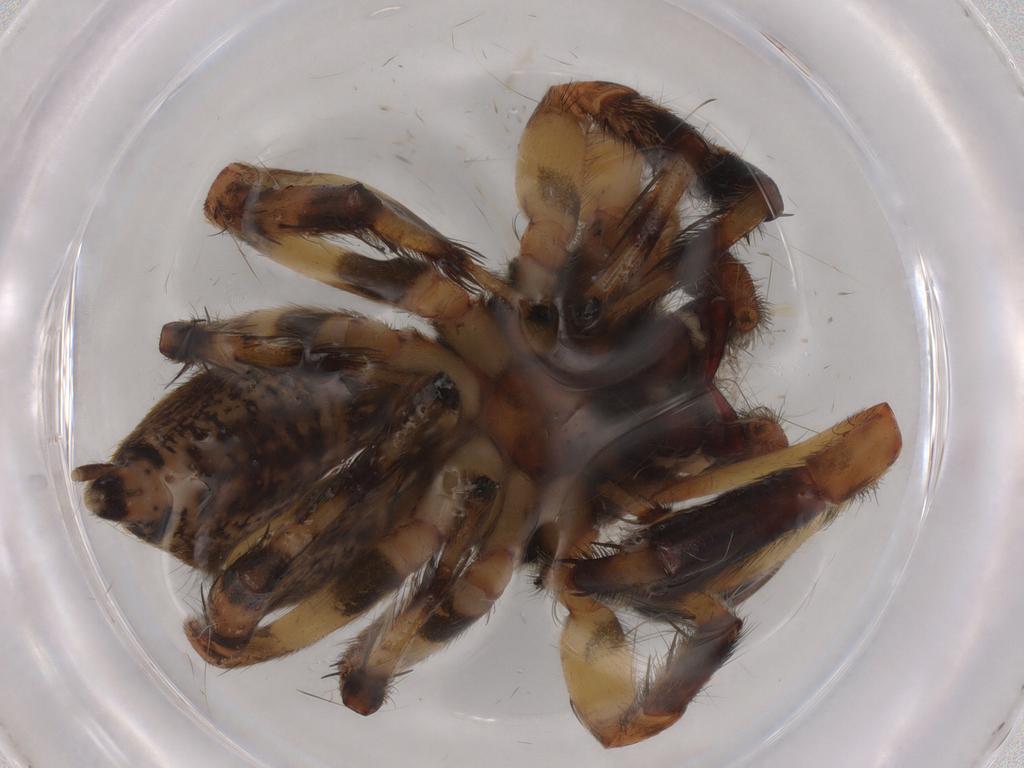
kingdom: Animalia
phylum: Arthropoda
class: Arachnida
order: Araneae
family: Salticidae
